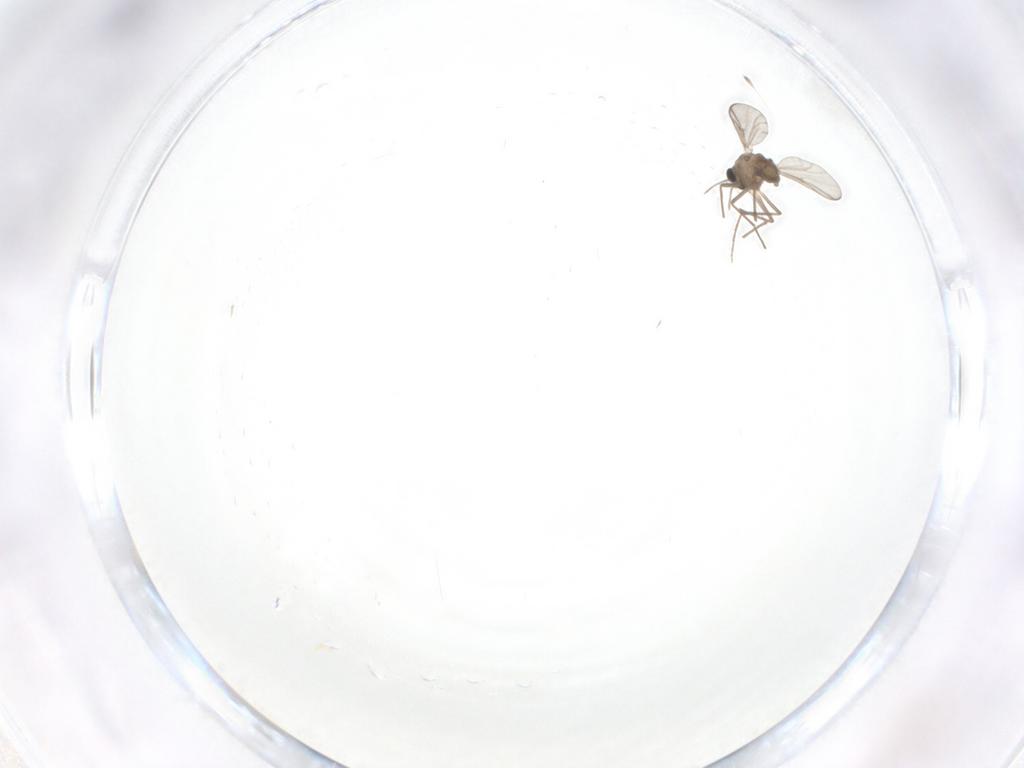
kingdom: Animalia
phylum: Arthropoda
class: Insecta
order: Diptera
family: Chironomidae
